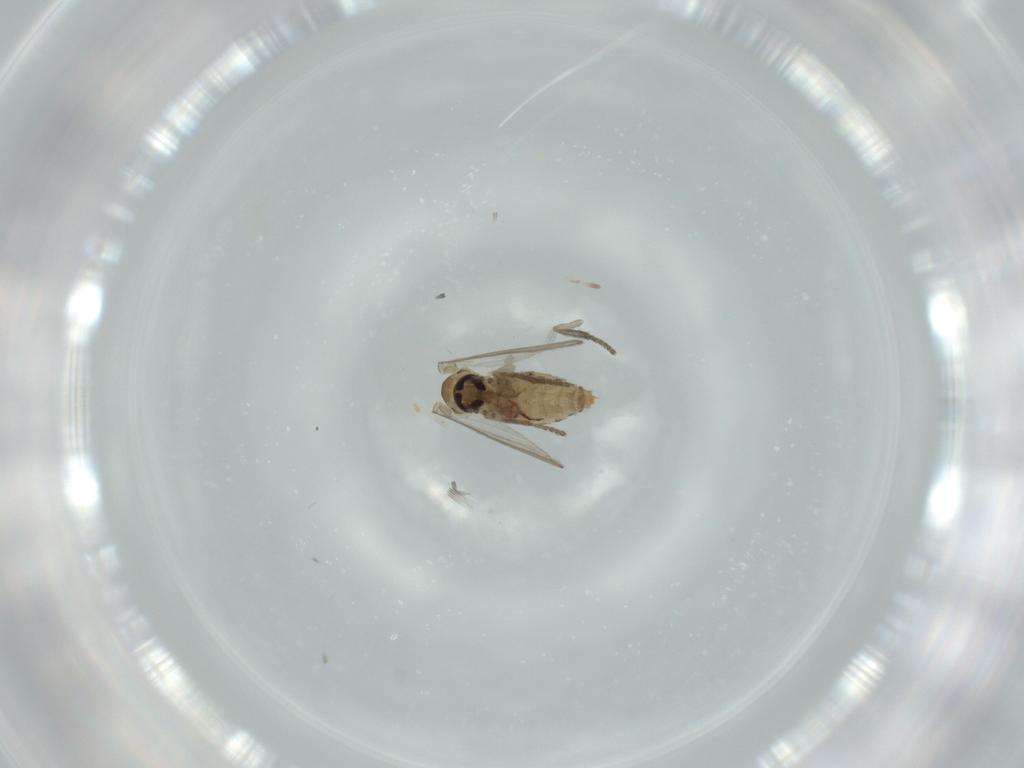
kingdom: Animalia
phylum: Arthropoda
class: Insecta
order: Diptera
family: Psychodidae
